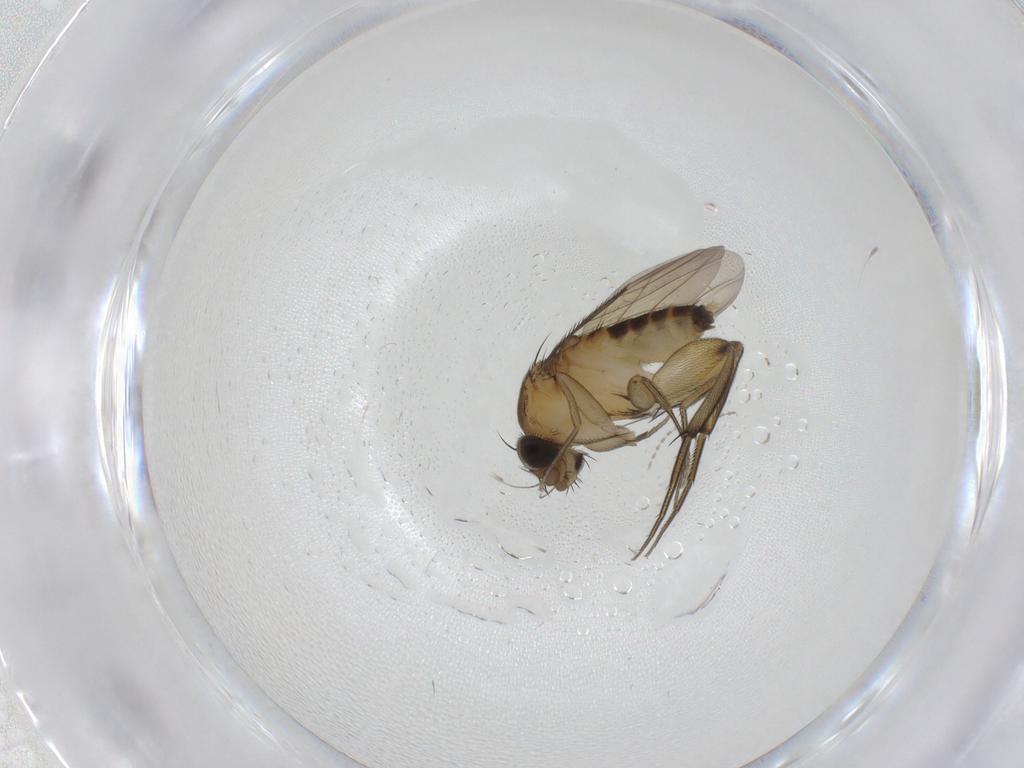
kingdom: Animalia
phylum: Arthropoda
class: Insecta
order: Diptera
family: Phoridae
